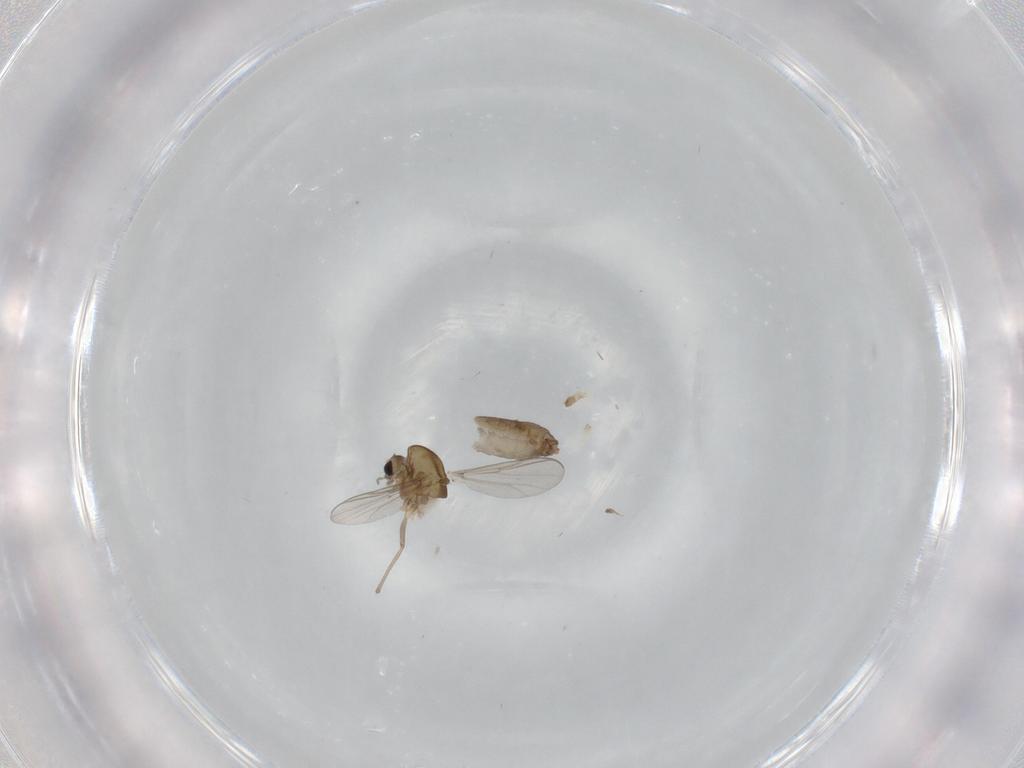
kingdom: Animalia
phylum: Arthropoda
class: Insecta
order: Diptera
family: Chironomidae
